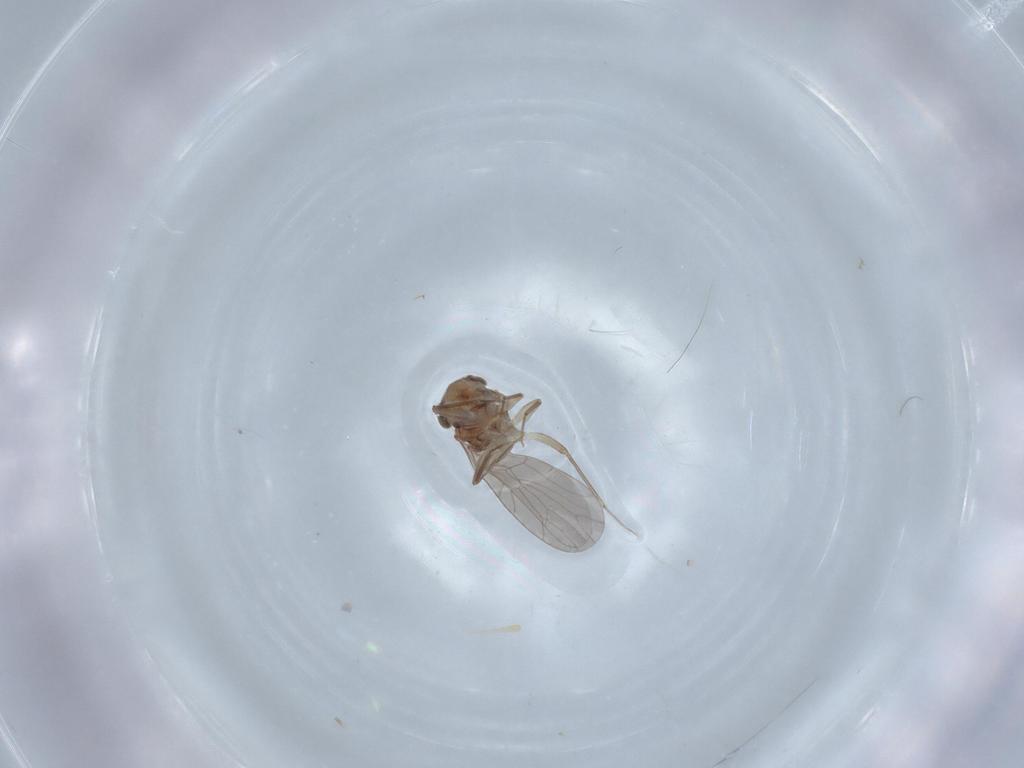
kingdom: Animalia
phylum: Arthropoda
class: Insecta
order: Psocodea
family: Lepidopsocidae
